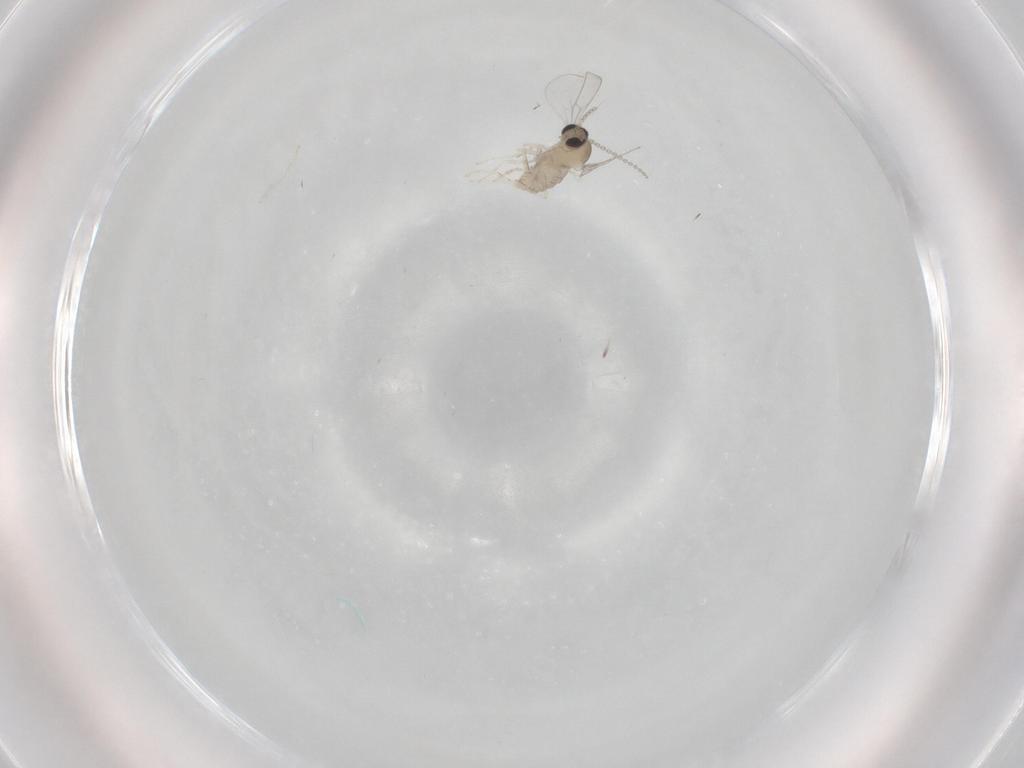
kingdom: Animalia
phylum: Arthropoda
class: Insecta
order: Diptera
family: Cecidomyiidae
